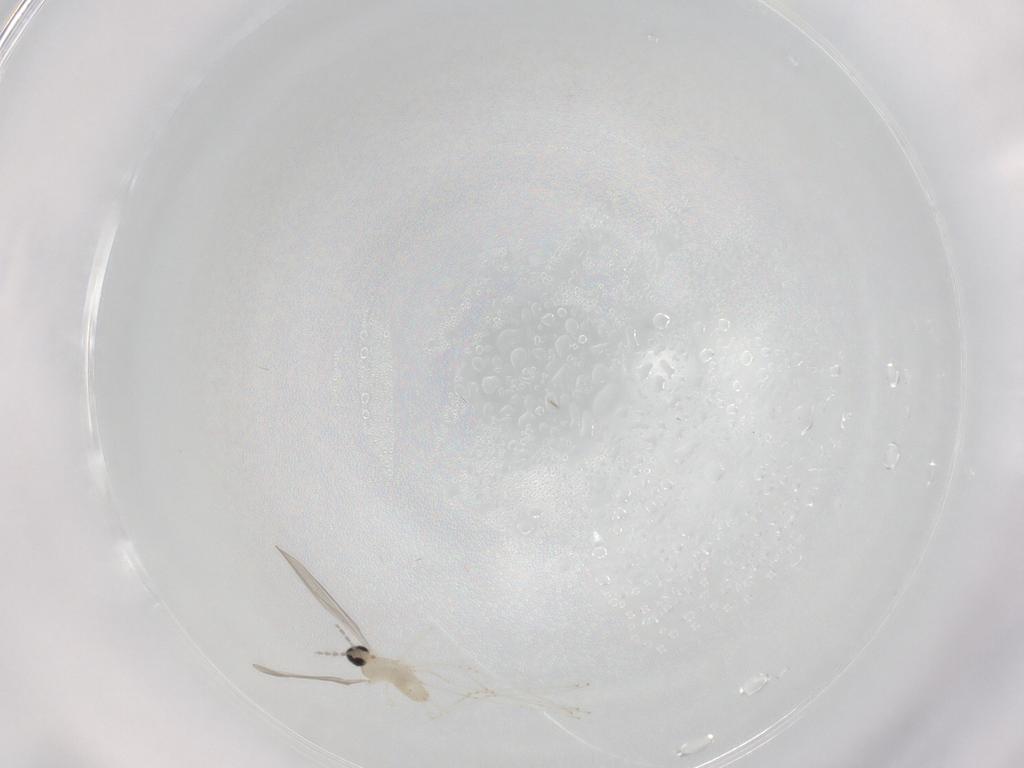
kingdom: Animalia
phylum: Arthropoda
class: Insecta
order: Diptera
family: Cecidomyiidae
